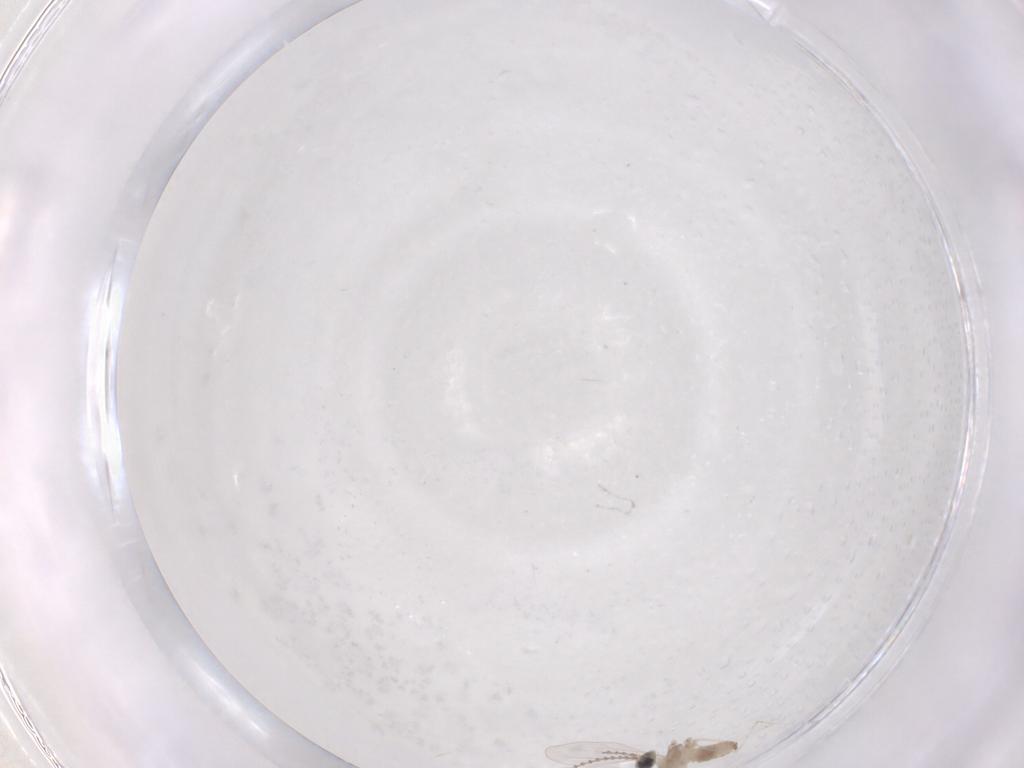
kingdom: Animalia
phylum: Arthropoda
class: Insecta
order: Diptera
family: Cecidomyiidae
